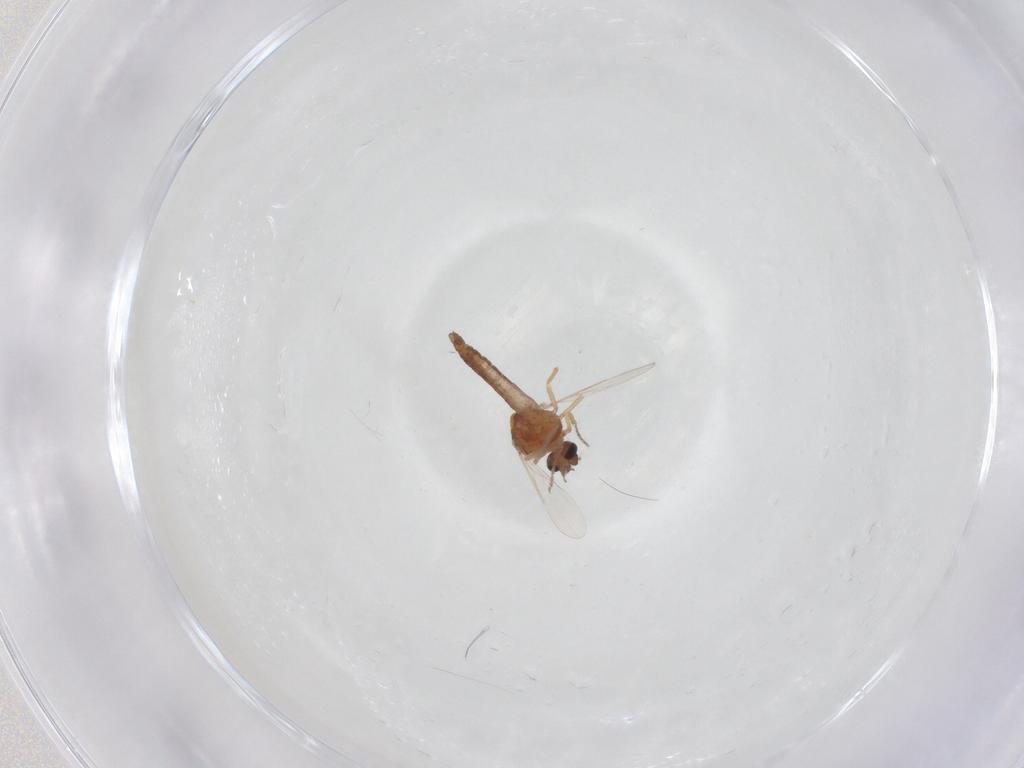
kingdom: Animalia
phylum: Arthropoda
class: Insecta
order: Diptera
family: Ceratopogonidae
